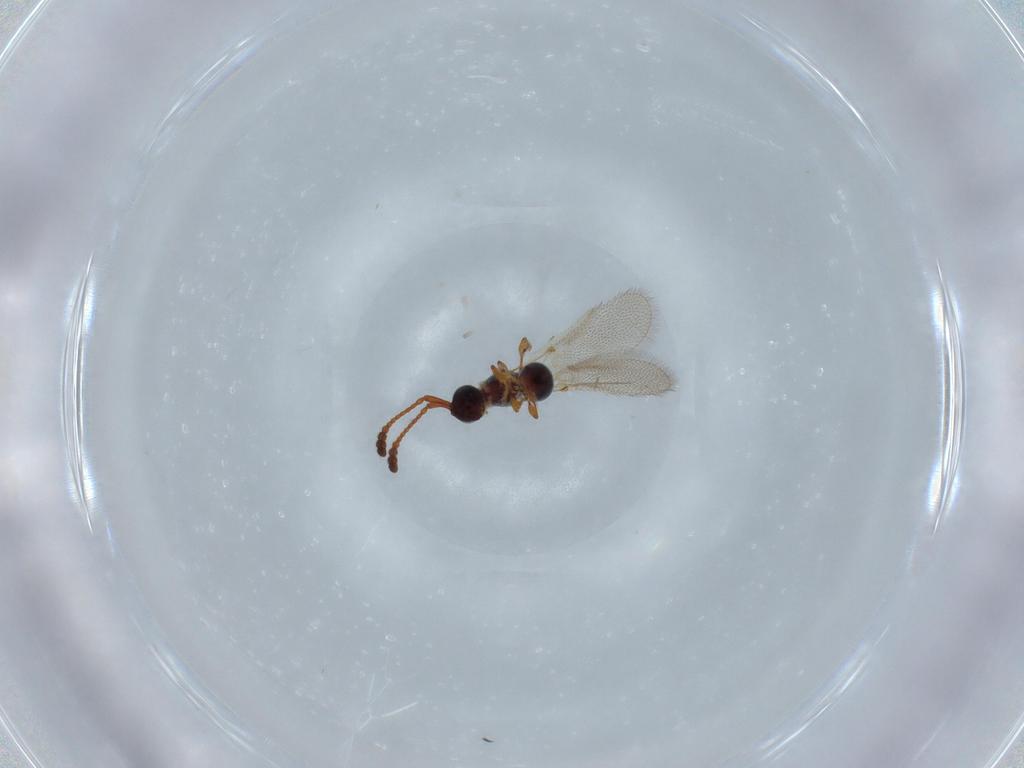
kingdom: Animalia
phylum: Arthropoda
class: Insecta
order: Hymenoptera
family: Diapriidae
